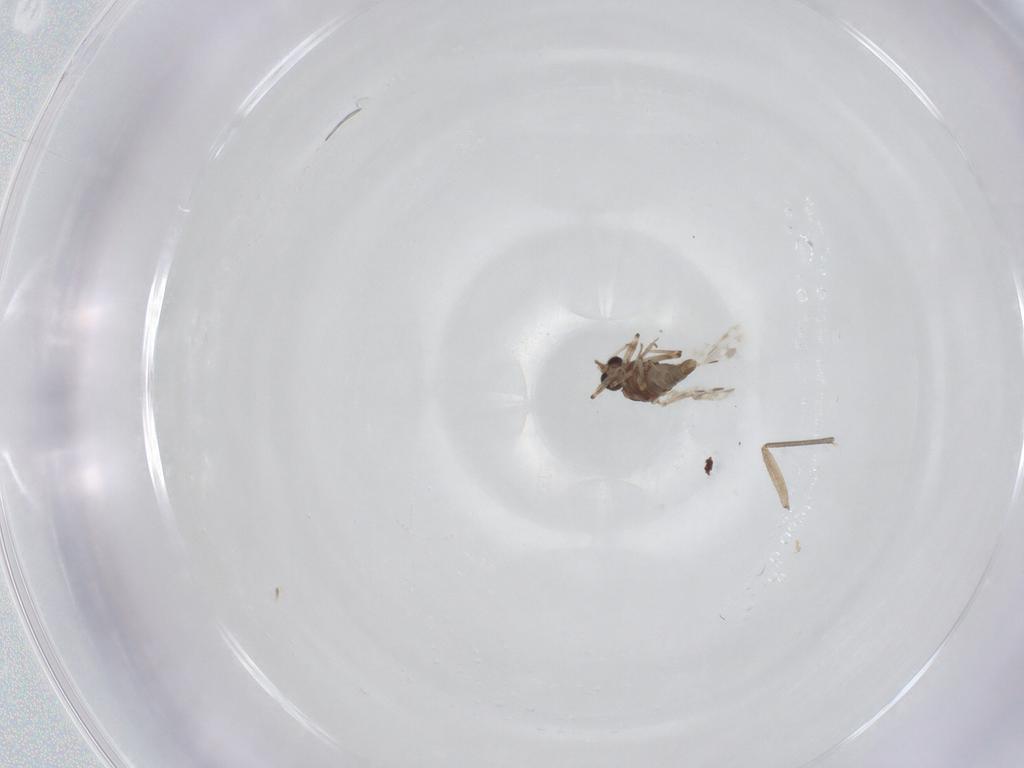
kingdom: Animalia
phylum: Arthropoda
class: Insecta
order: Diptera
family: Sciaridae
